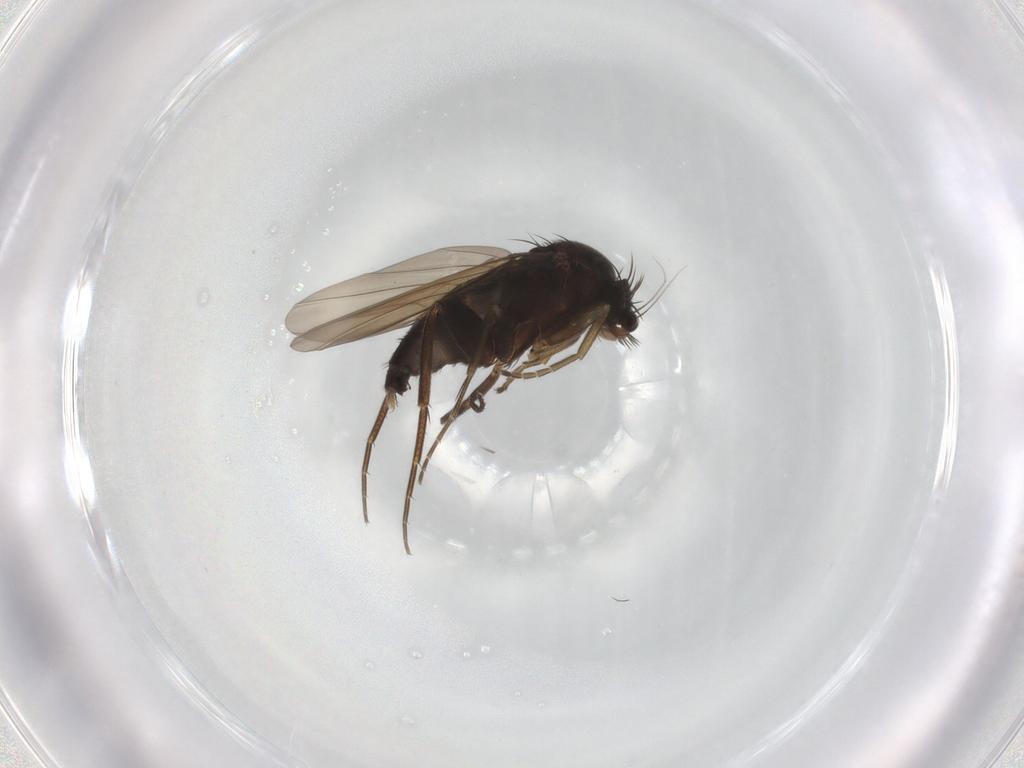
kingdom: Animalia
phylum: Arthropoda
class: Insecta
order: Diptera
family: Phoridae
